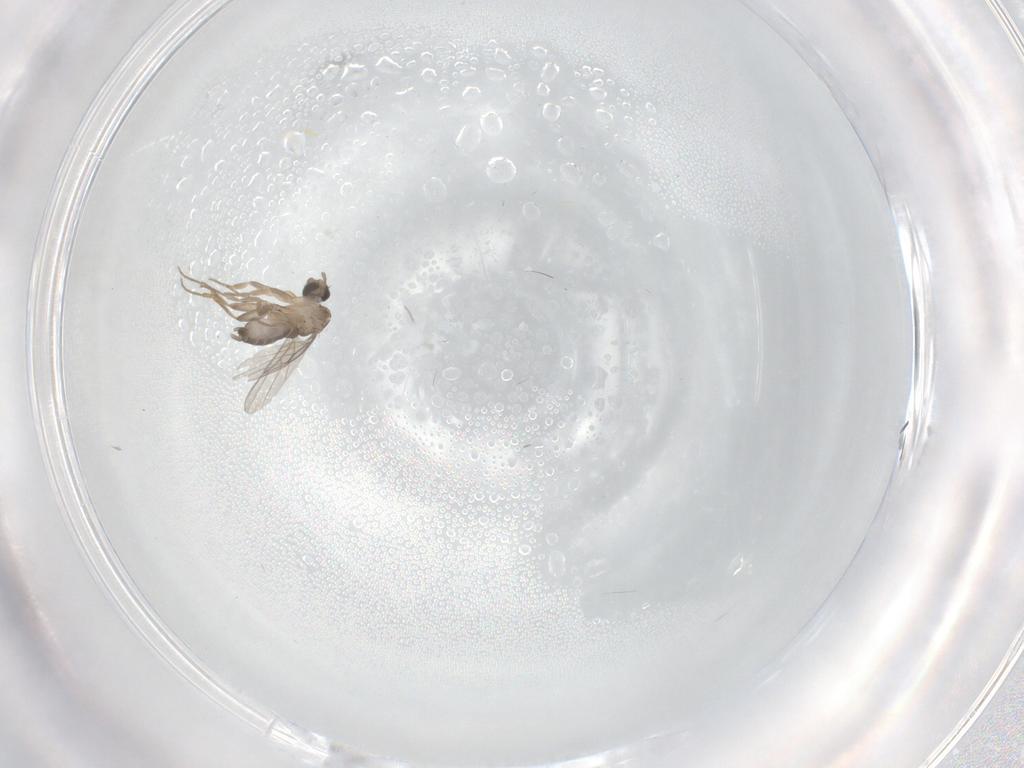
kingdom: Animalia
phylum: Arthropoda
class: Insecta
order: Diptera
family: Phoridae
